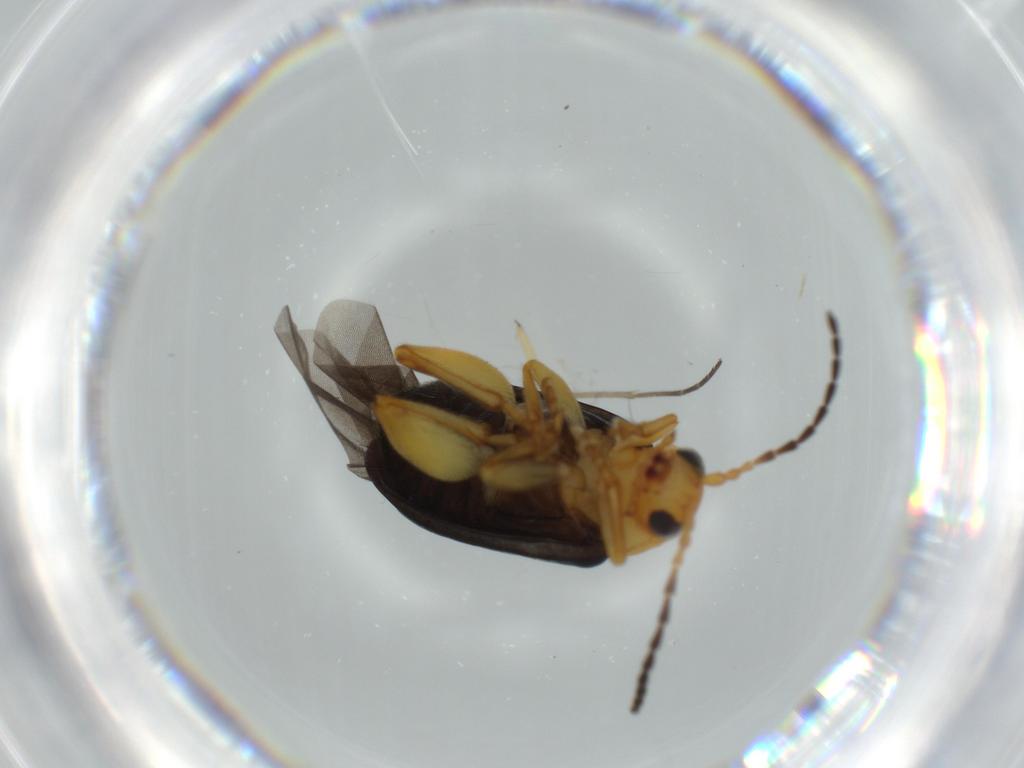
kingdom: Animalia
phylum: Arthropoda
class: Insecta
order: Coleoptera
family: Chrysomelidae
